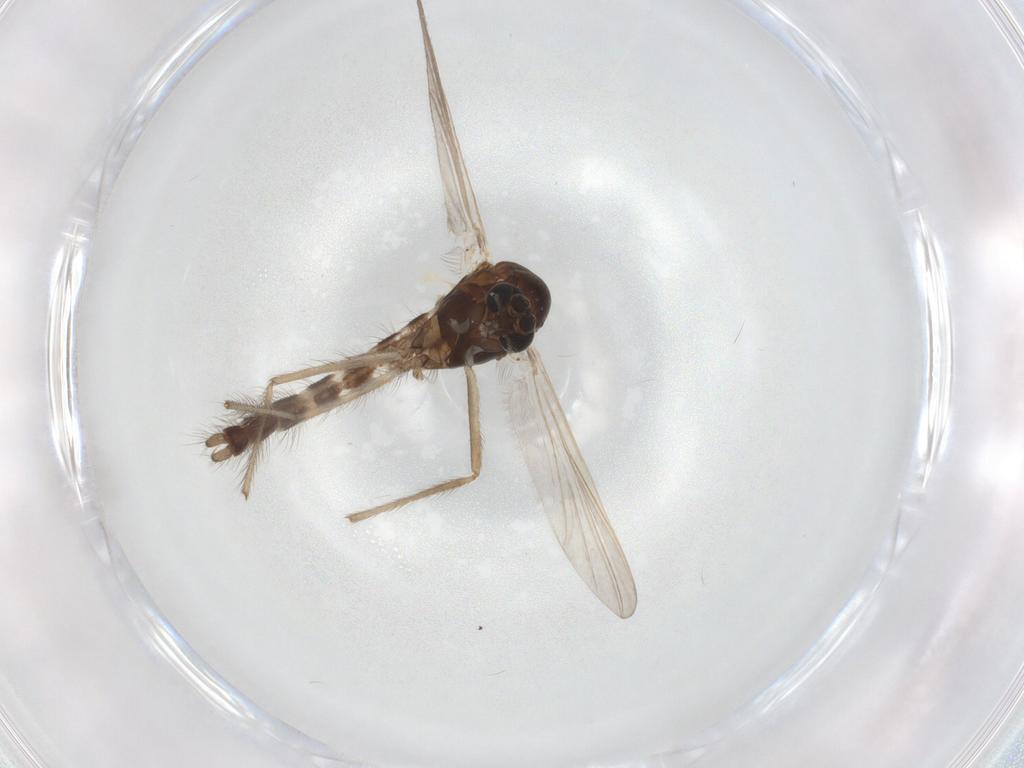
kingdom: Animalia
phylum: Arthropoda
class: Insecta
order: Diptera
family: Chironomidae
